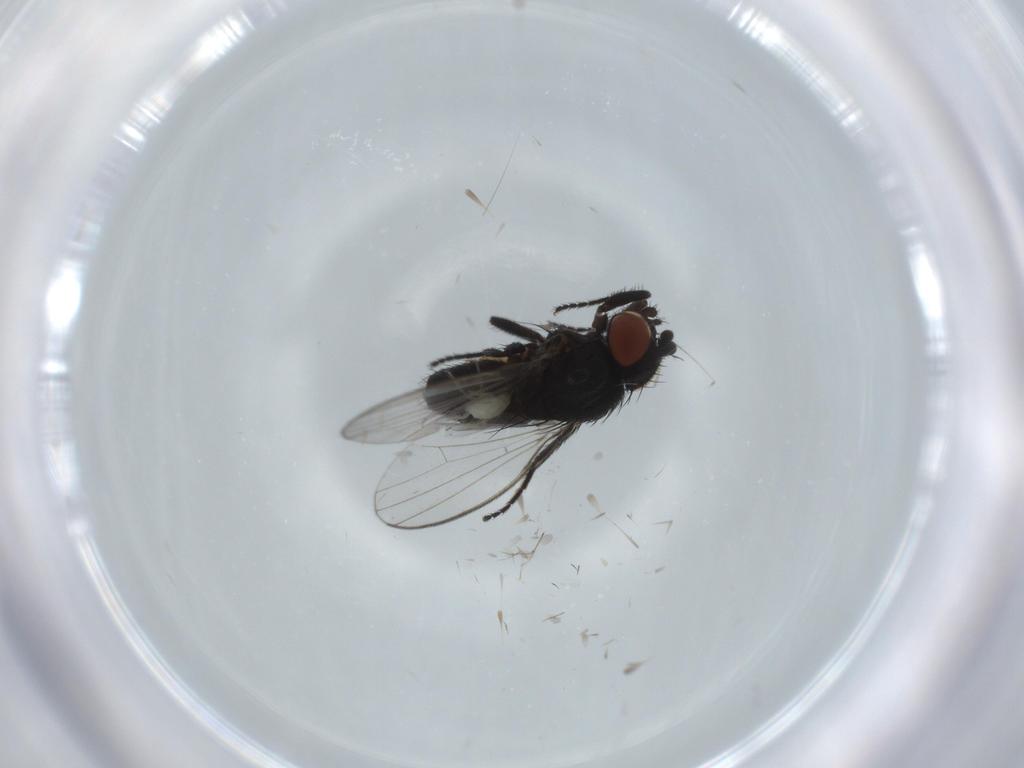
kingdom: Animalia
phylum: Arthropoda
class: Insecta
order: Diptera
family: Milichiidae
